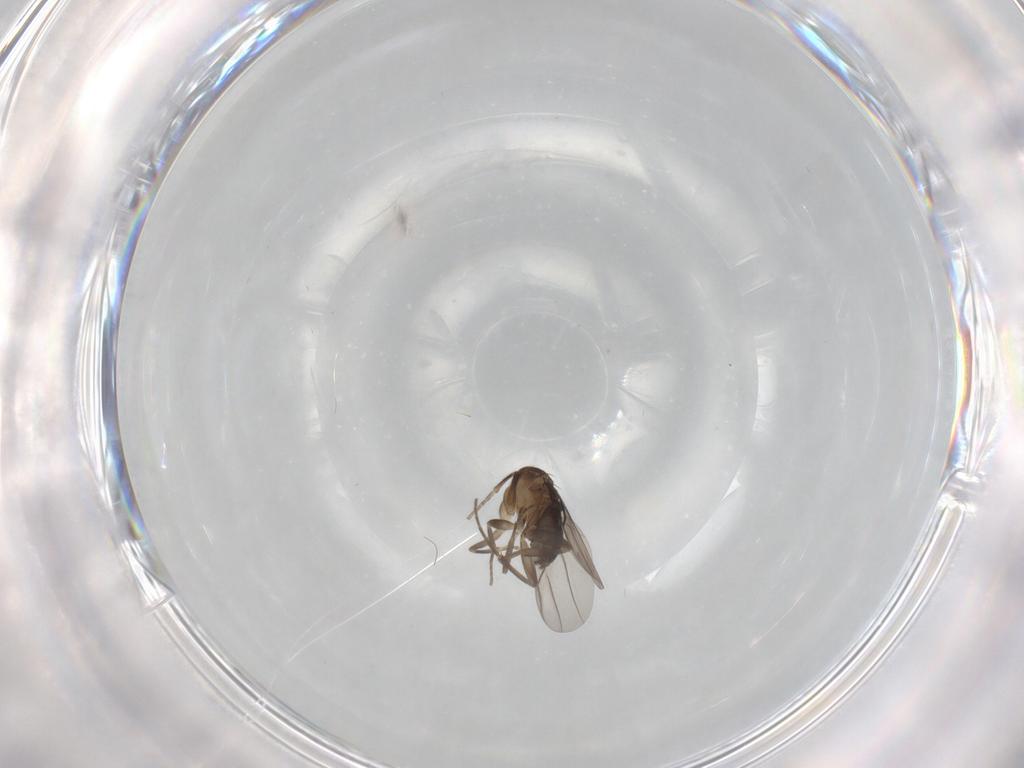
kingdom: Animalia
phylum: Arthropoda
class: Insecta
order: Diptera
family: Phoridae
